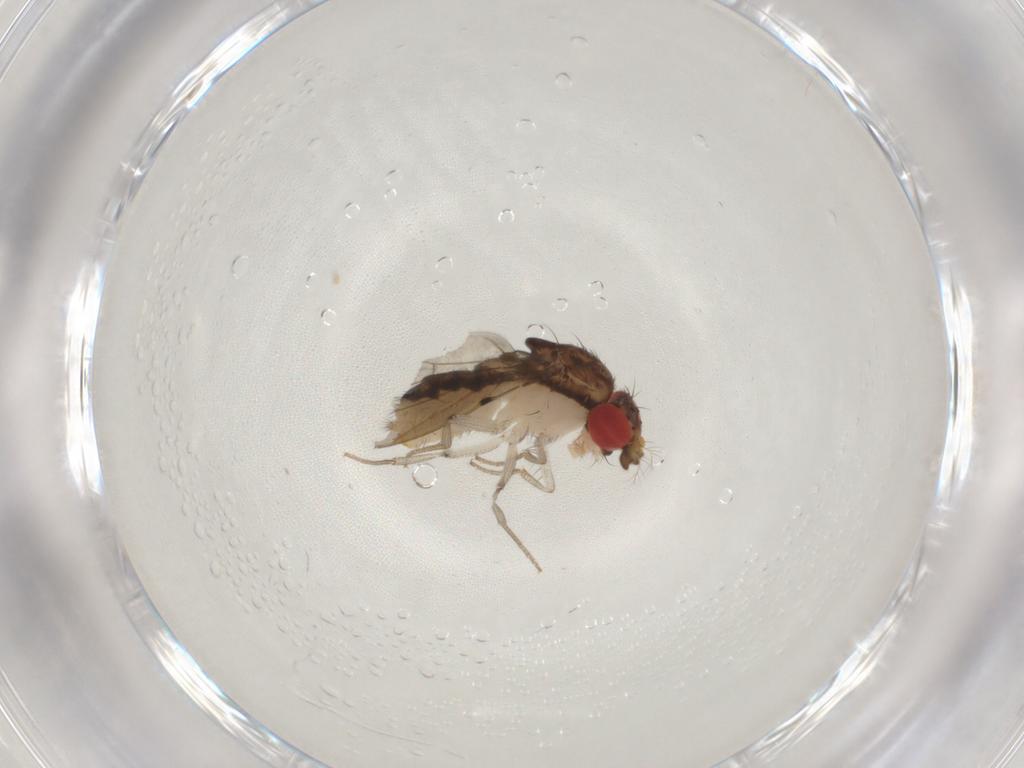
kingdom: Animalia
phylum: Arthropoda
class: Insecta
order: Diptera
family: Drosophilidae
